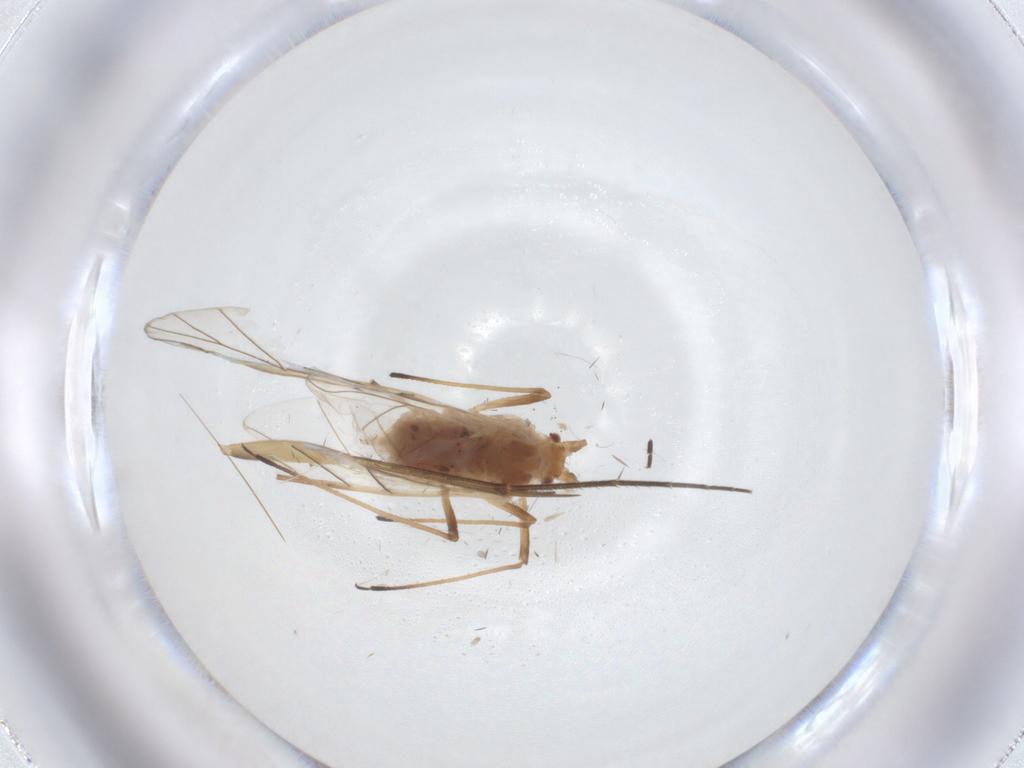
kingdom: Animalia
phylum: Arthropoda
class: Insecta
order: Hemiptera
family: Aphididae
